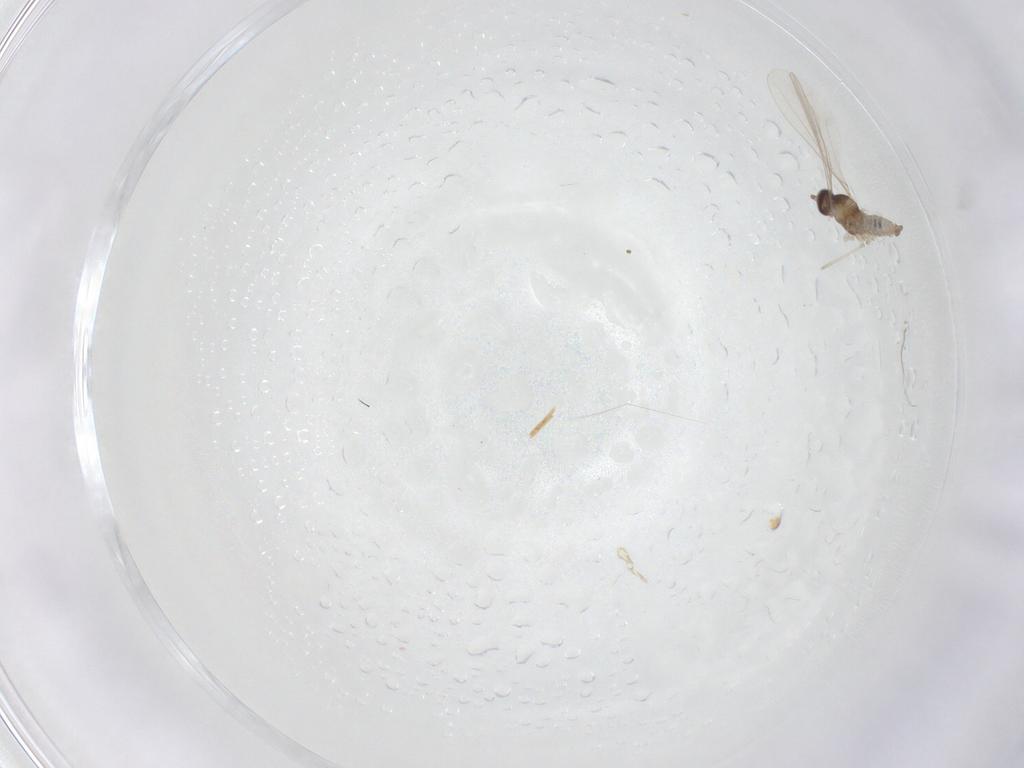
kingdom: Animalia
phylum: Arthropoda
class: Insecta
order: Diptera
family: Cecidomyiidae
